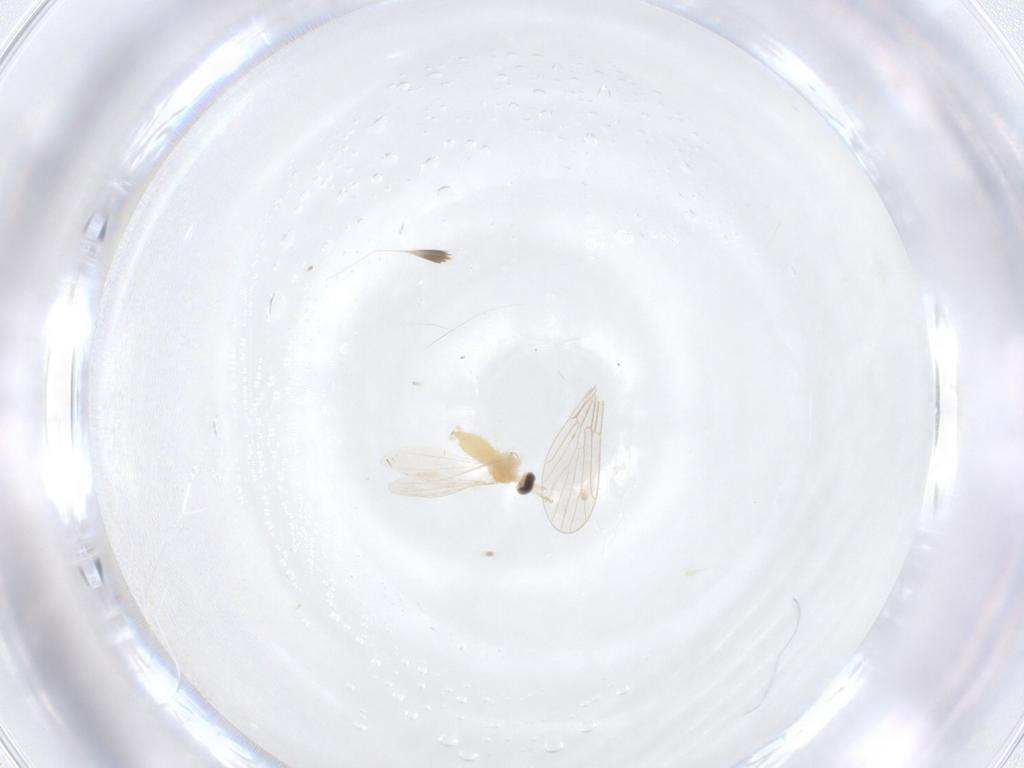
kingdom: Animalia
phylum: Arthropoda
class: Insecta
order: Diptera
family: Cecidomyiidae
